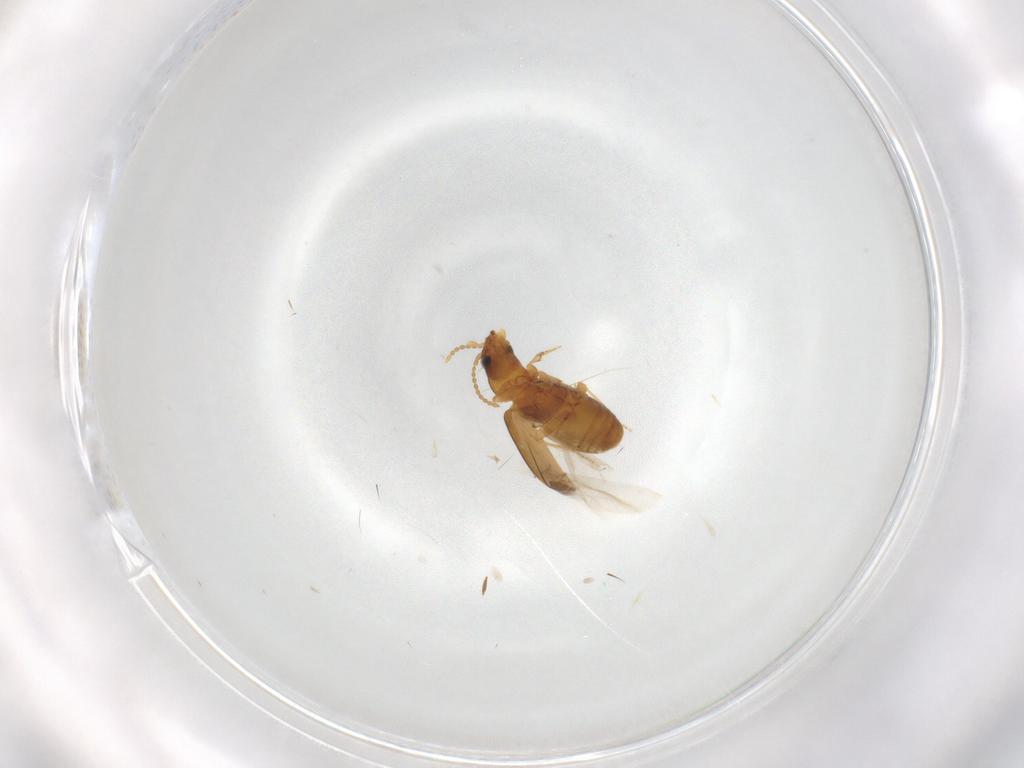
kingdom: Animalia
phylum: Arthropoda
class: Insecta
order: Coleoptera
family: Carabidae
